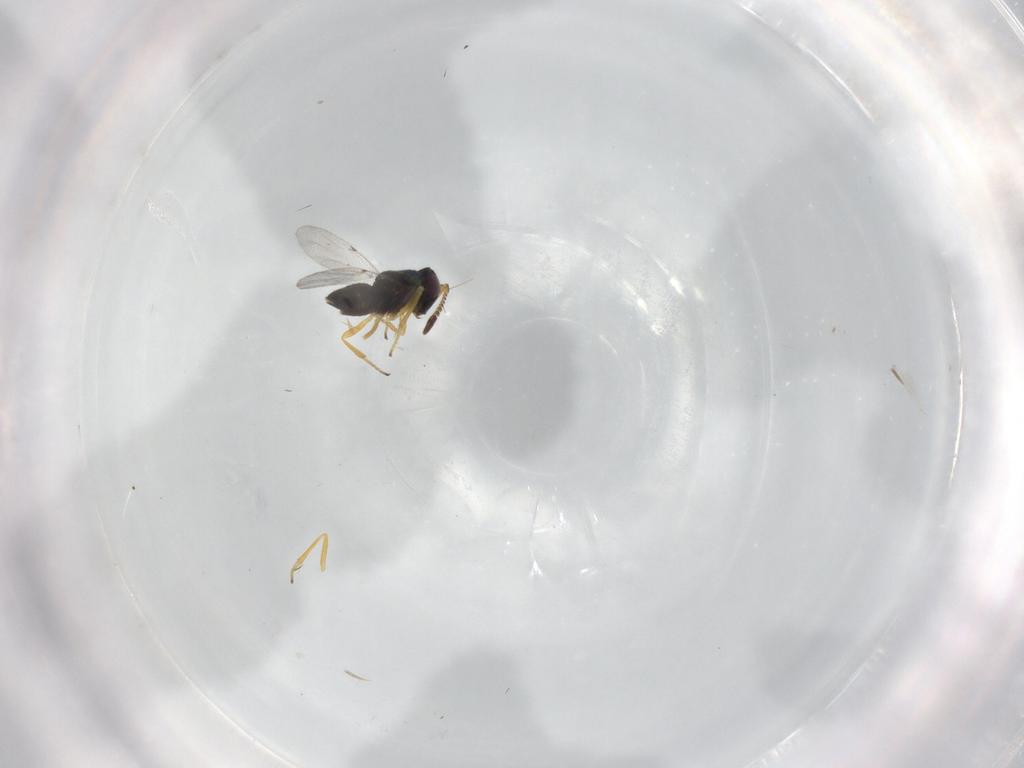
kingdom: Animalia
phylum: Arthropoda
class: Insecta
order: Hymenoptera
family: Encyrtidae
